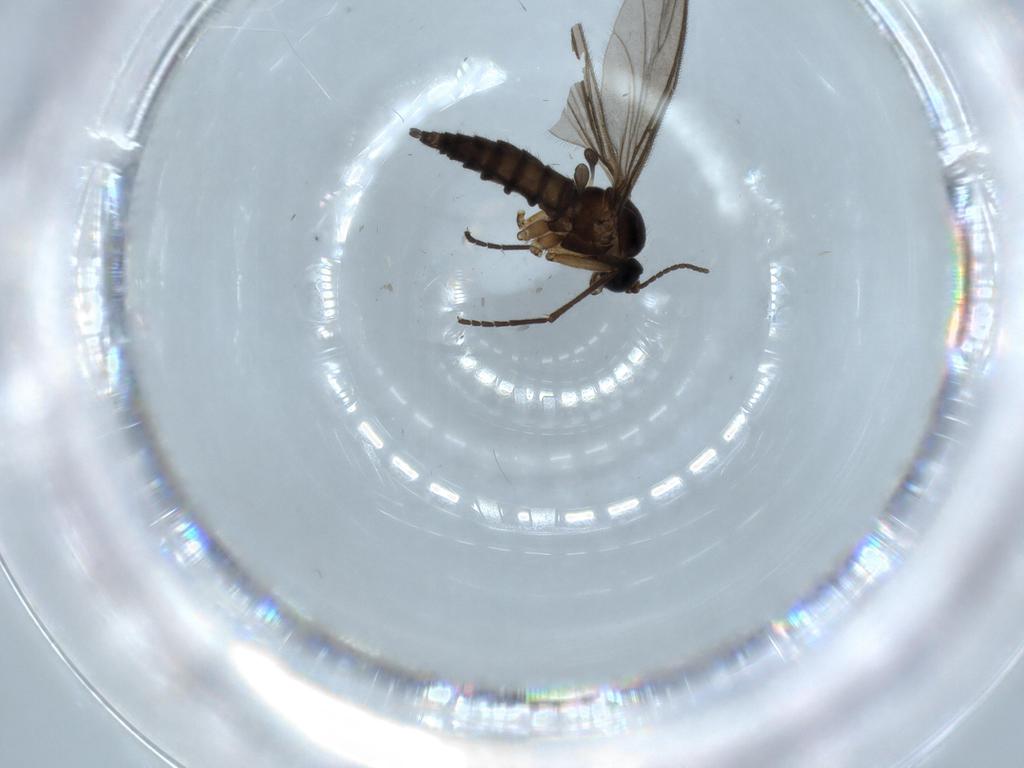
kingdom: Animalia
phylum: Arthropoda
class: Insecta
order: Diptera
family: Sciaridae
